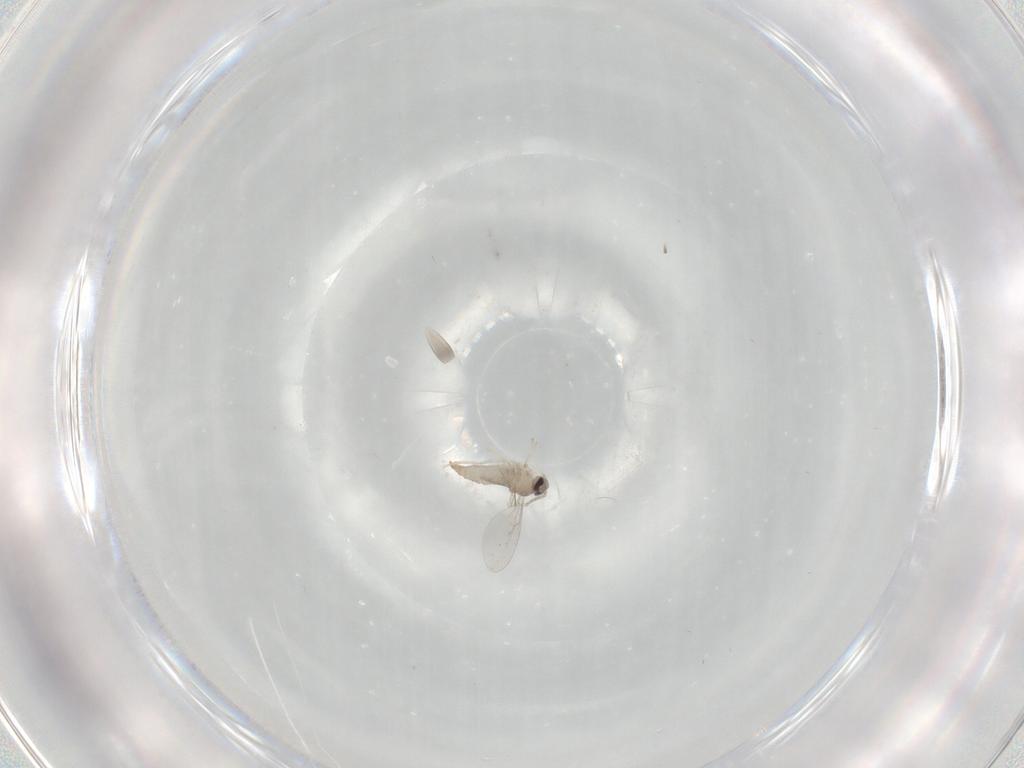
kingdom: Animalia
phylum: Arthropoda
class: Insecta
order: Diptera
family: Cecidomyiidae
